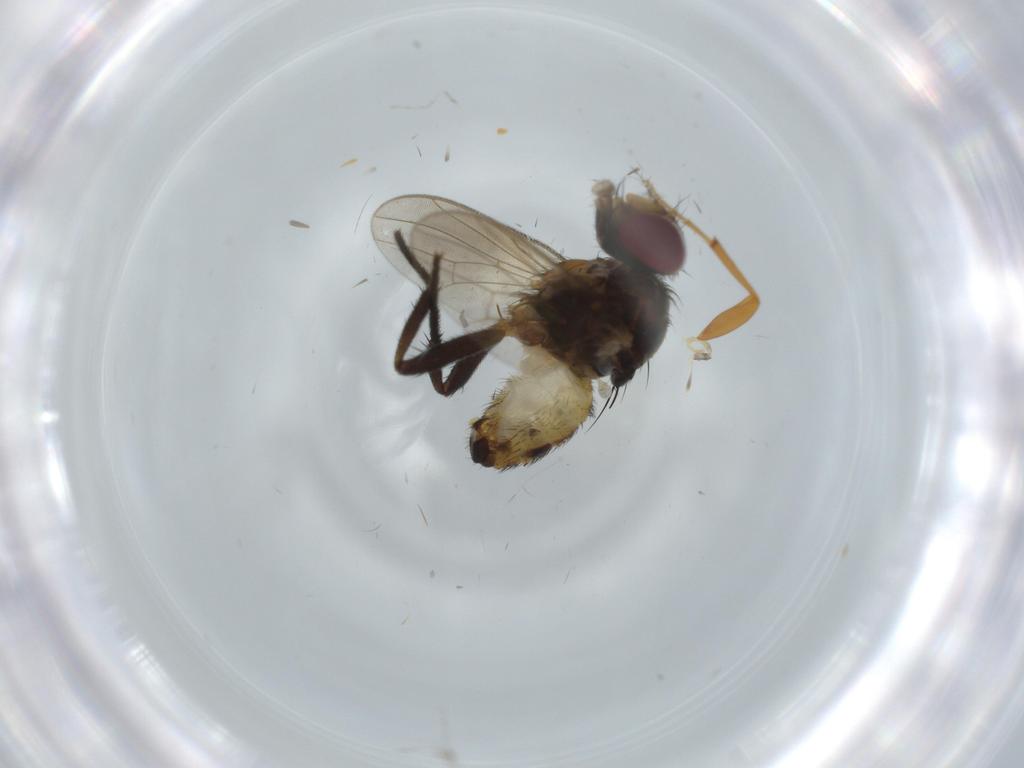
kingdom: Animalia
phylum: Arthropoda
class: Insecta
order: Diptera
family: Anthomyiidae
